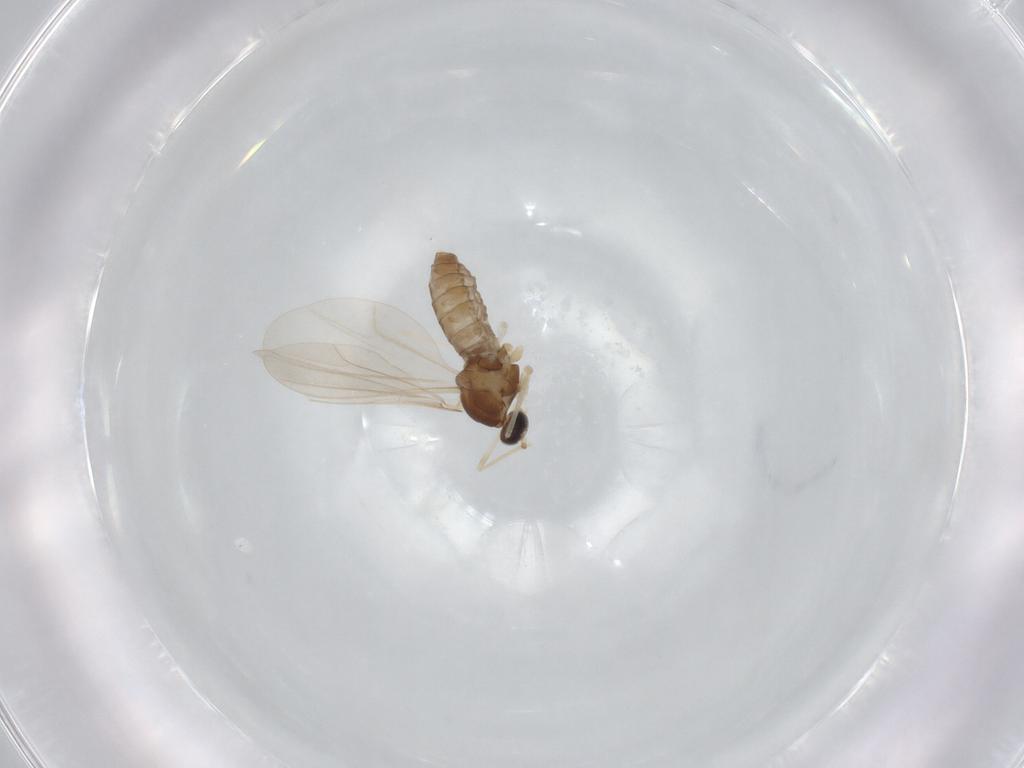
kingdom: Animalia
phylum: Arthropoda
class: Insecta
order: Diptera
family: Cecidomyiidae
